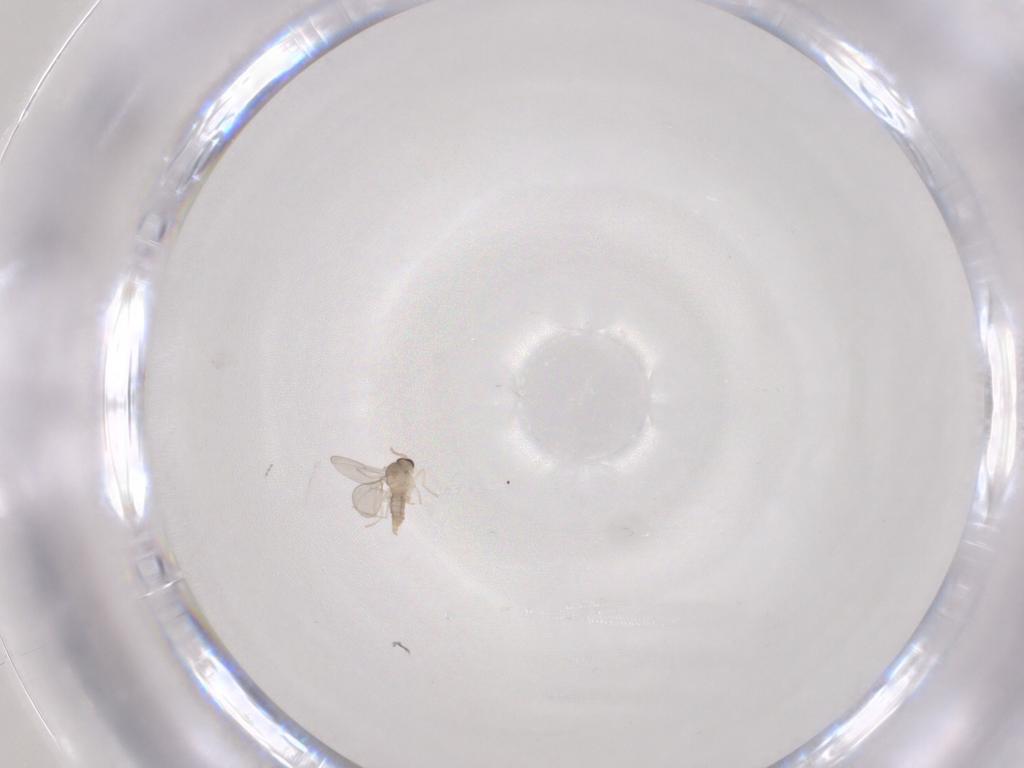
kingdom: Animalia
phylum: Arthropoda
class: Insecta
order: Diptera
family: Cecidomyiidae
